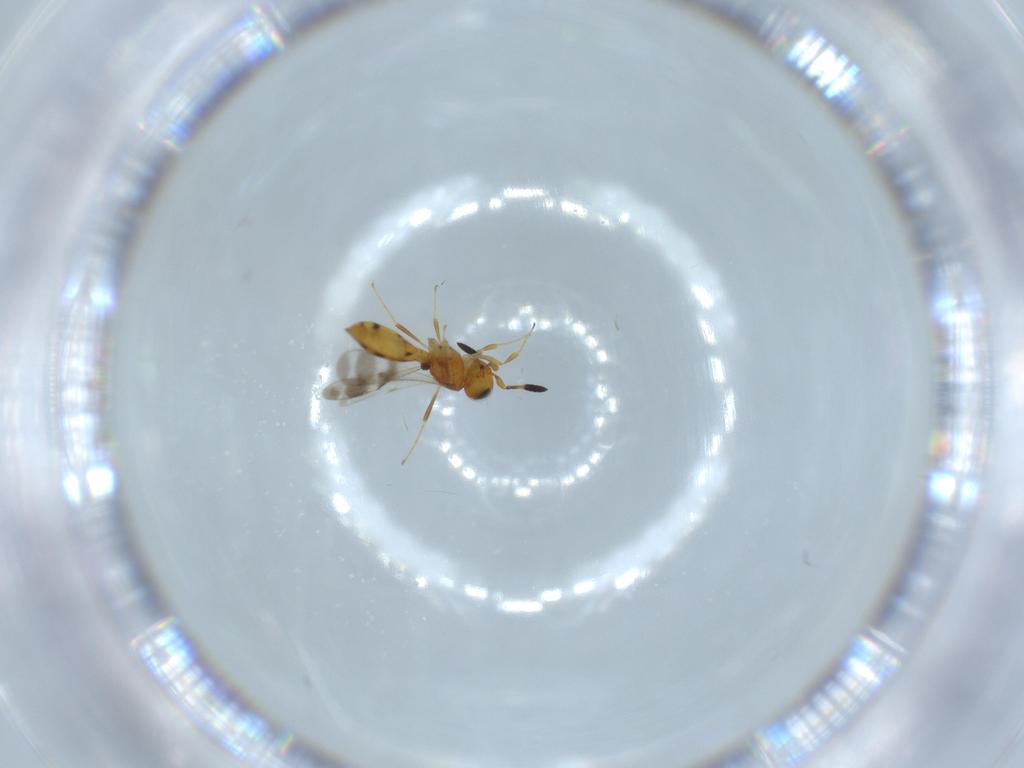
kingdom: Animalia
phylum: Arthropoda
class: Insecta
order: Hymenoptera
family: Scelionidae
